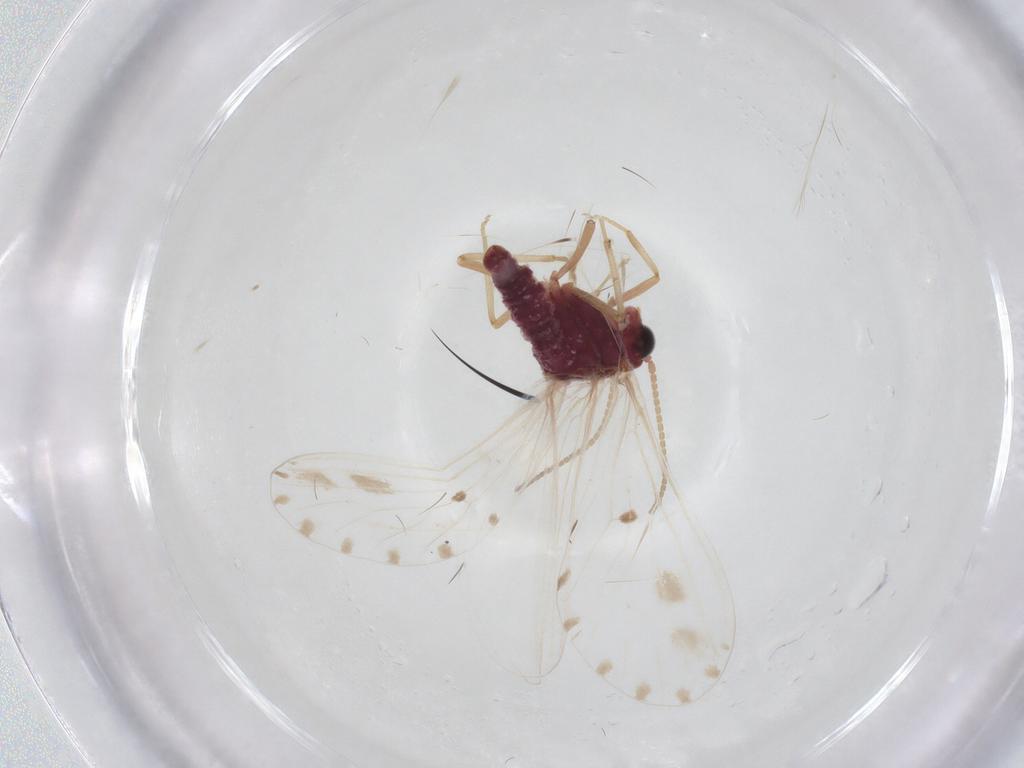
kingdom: Animalia
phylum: Arthropoda
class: Insecta
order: Neuroptera
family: Coniopterygidae
